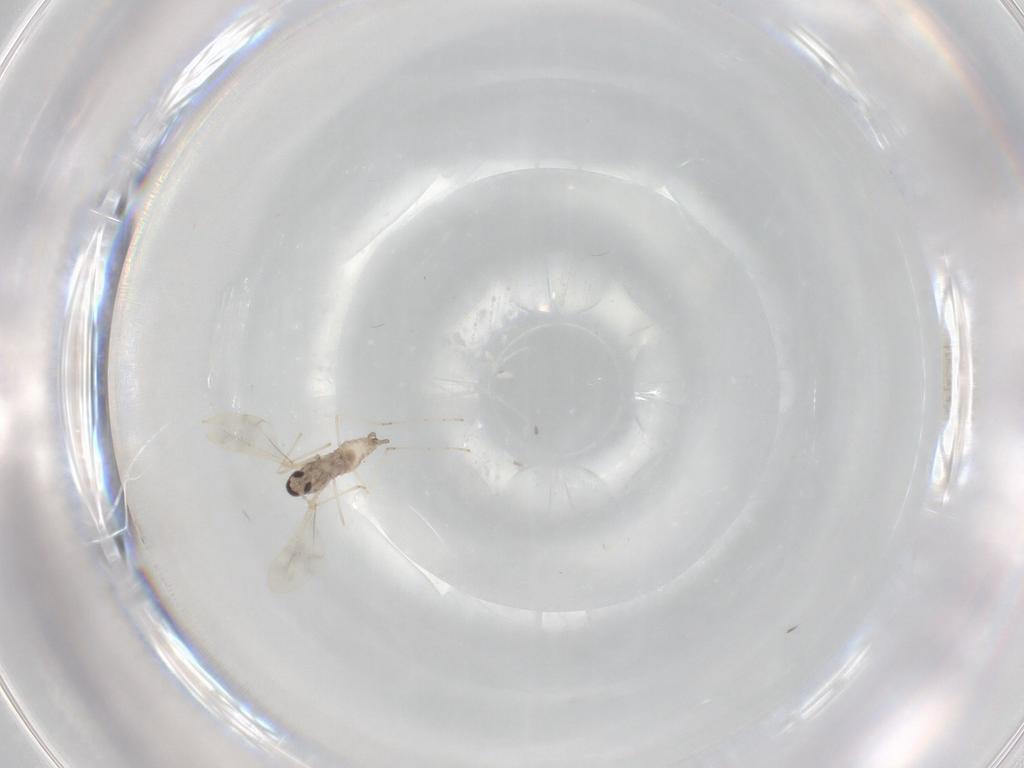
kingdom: Animalia
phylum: Arthropoda
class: Insecta
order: Diptera
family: Cecidomyiidae
